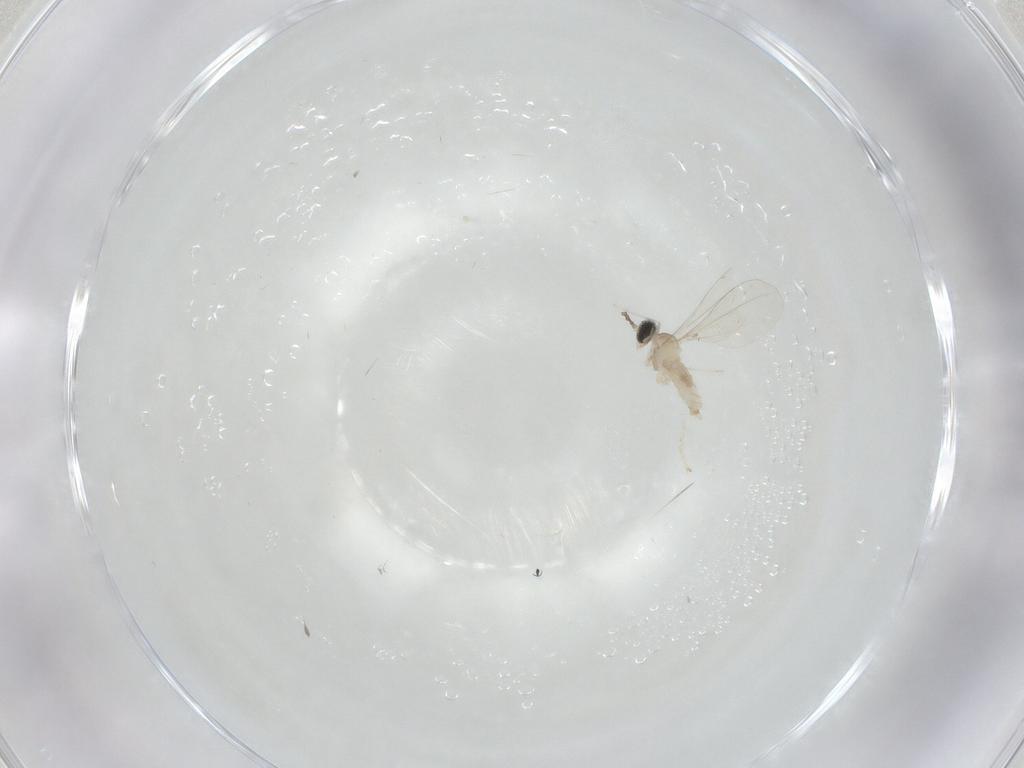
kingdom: Animalia
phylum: Arthropoda
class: Insecta
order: Diptera
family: Cecidomyiidae
